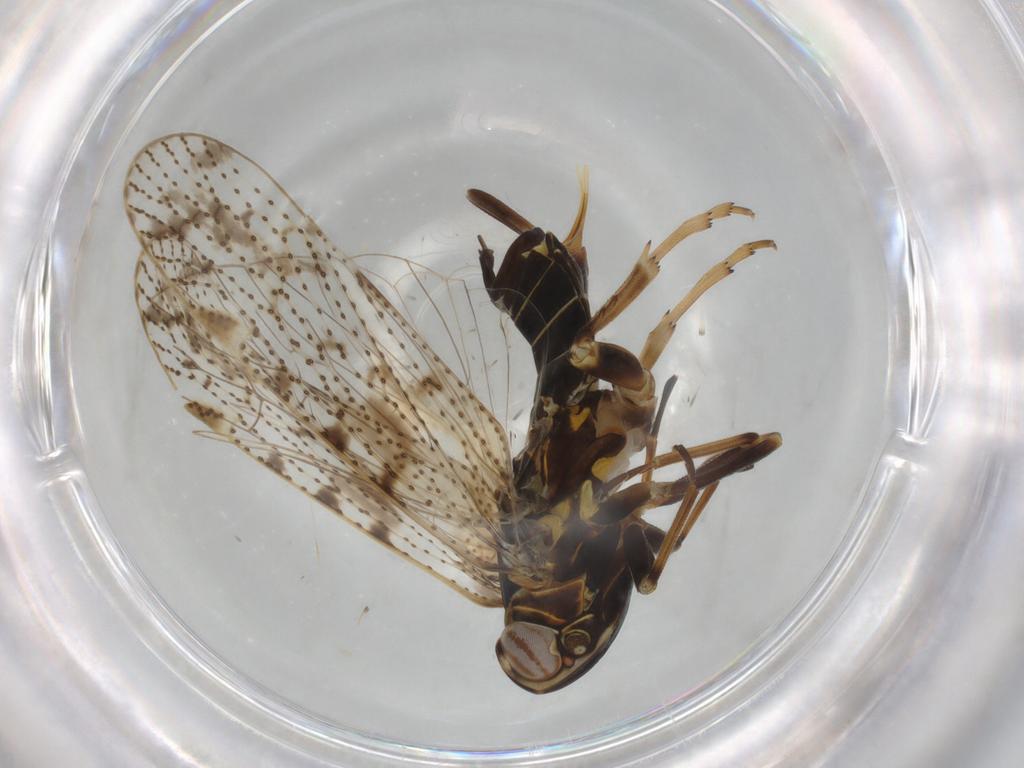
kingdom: Animalia
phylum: Arthropoda
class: Insecta
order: Hemiptera
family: Cixiidae
